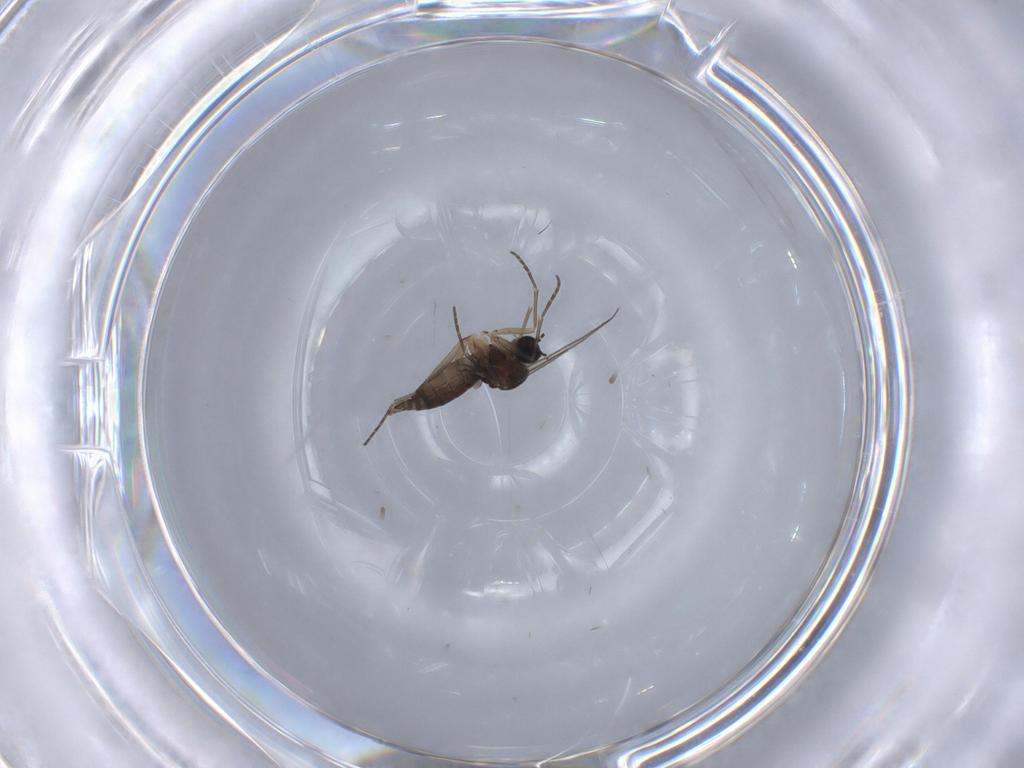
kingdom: Animalia
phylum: Arthropoda
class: Insecta
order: Diptera
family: Sciaridae
